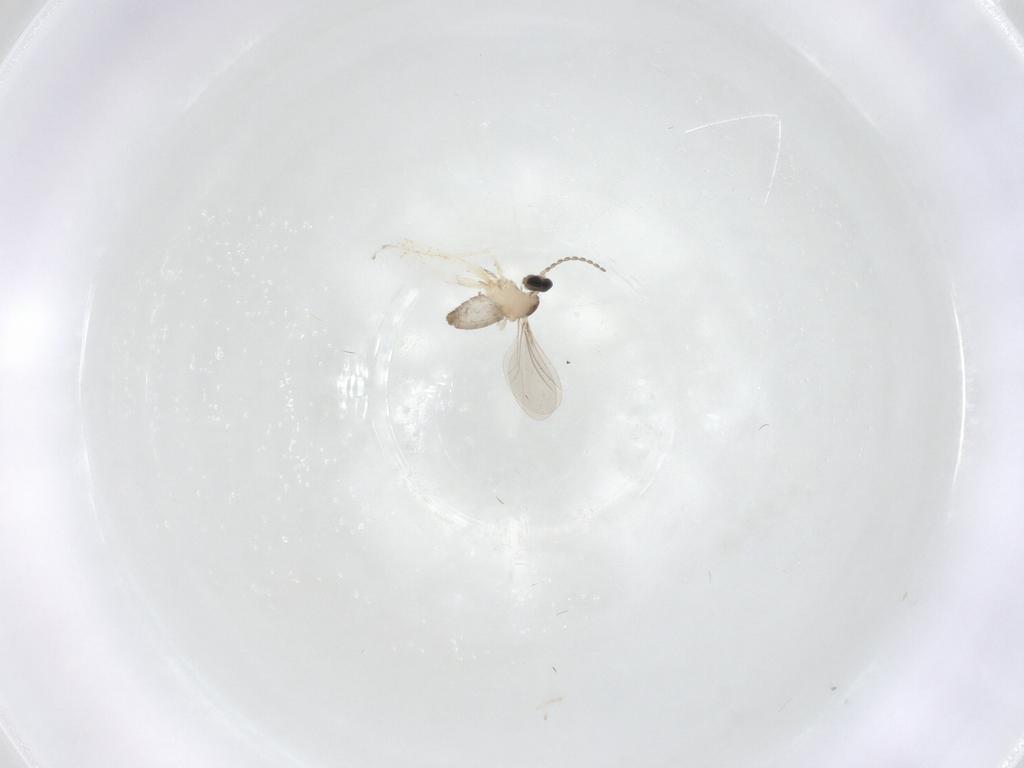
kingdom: Animalia
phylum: Arthropoda
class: Insecta
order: Diptera
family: Cecidomyiidae
